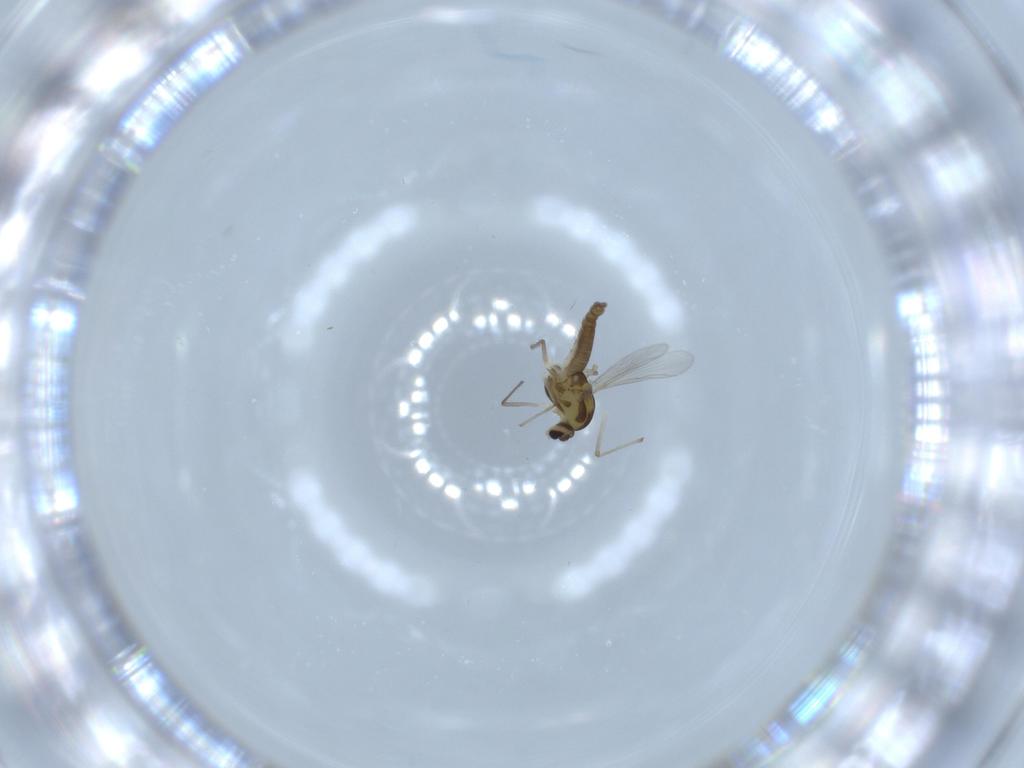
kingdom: Animalia
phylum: Arthropoda
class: Insecta
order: Diptera
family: Chironomidae
